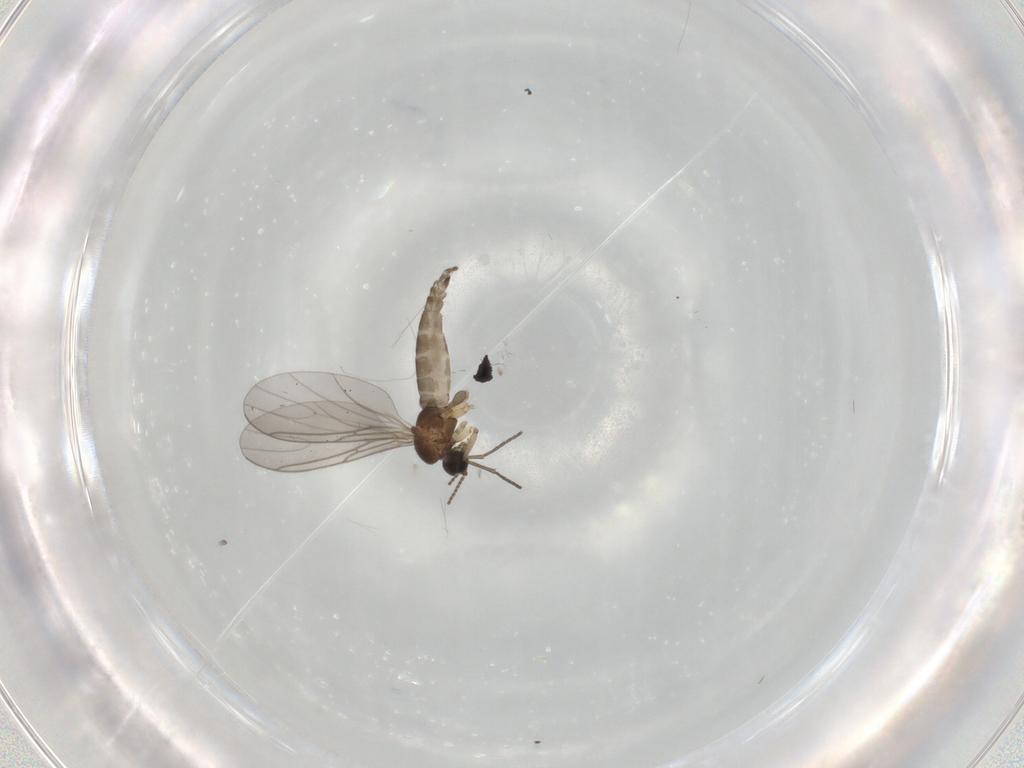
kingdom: Animalia
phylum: Arthropoda
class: Insecta
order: Diptera
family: Sciaridae
